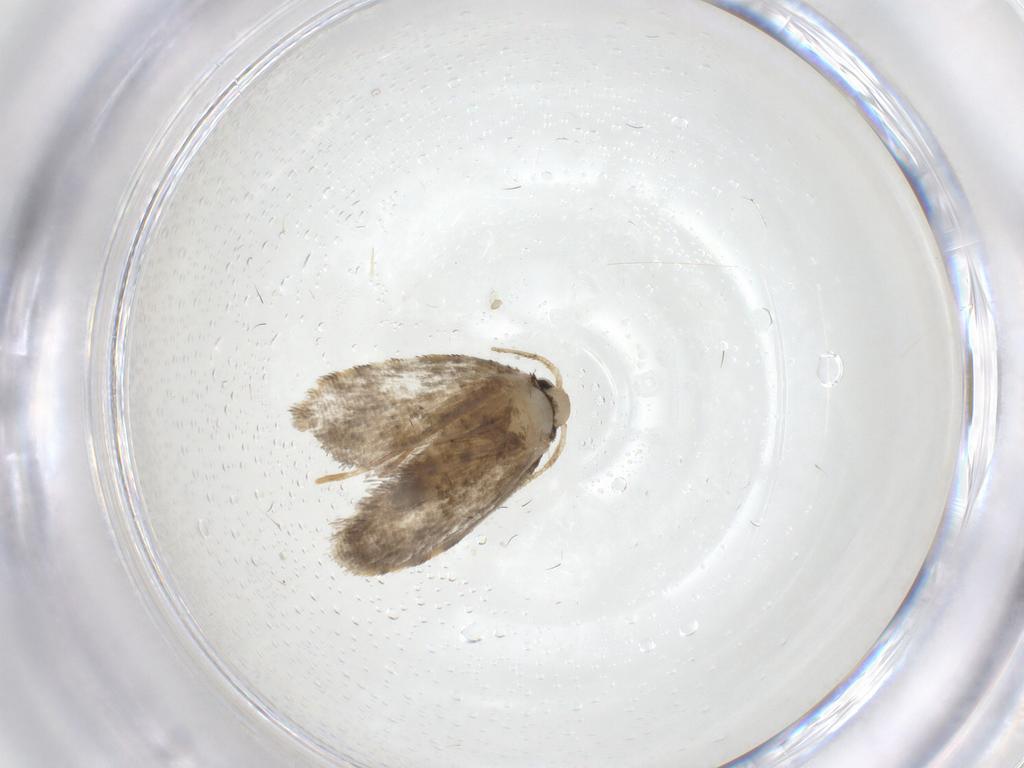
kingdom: Animalia
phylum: Arthropoda
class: Insecta
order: Lepidoptera
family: Psychidae
